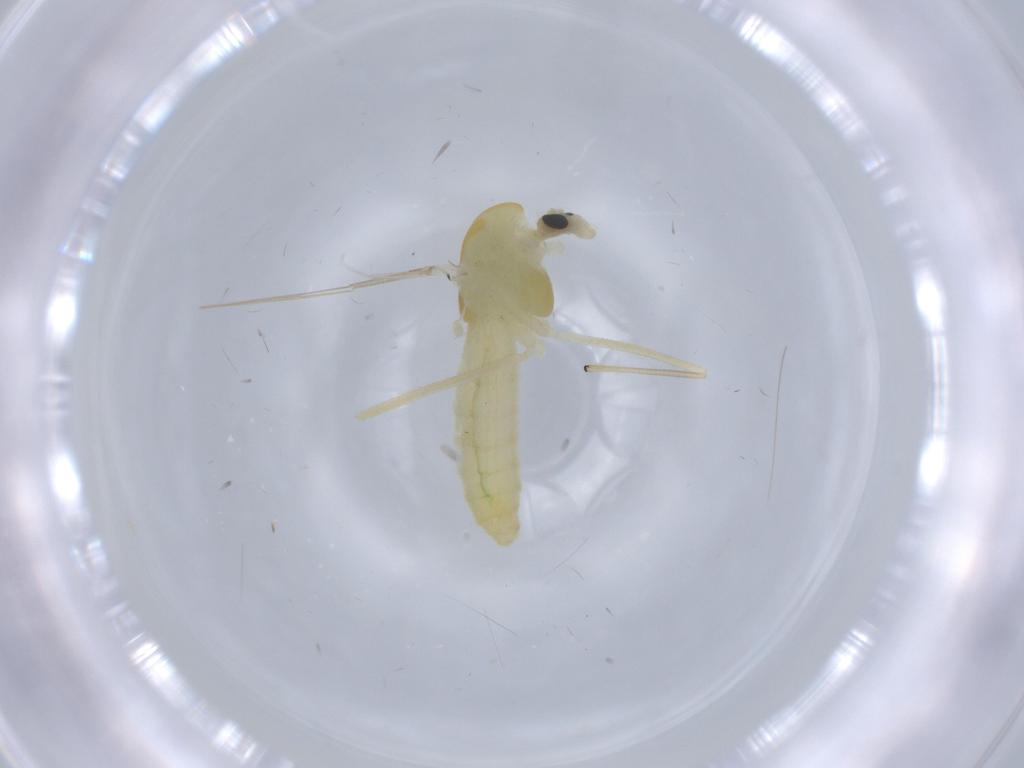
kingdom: Animalia
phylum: Arthropoda
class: Insecta
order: Diptera
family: Chironomidae
